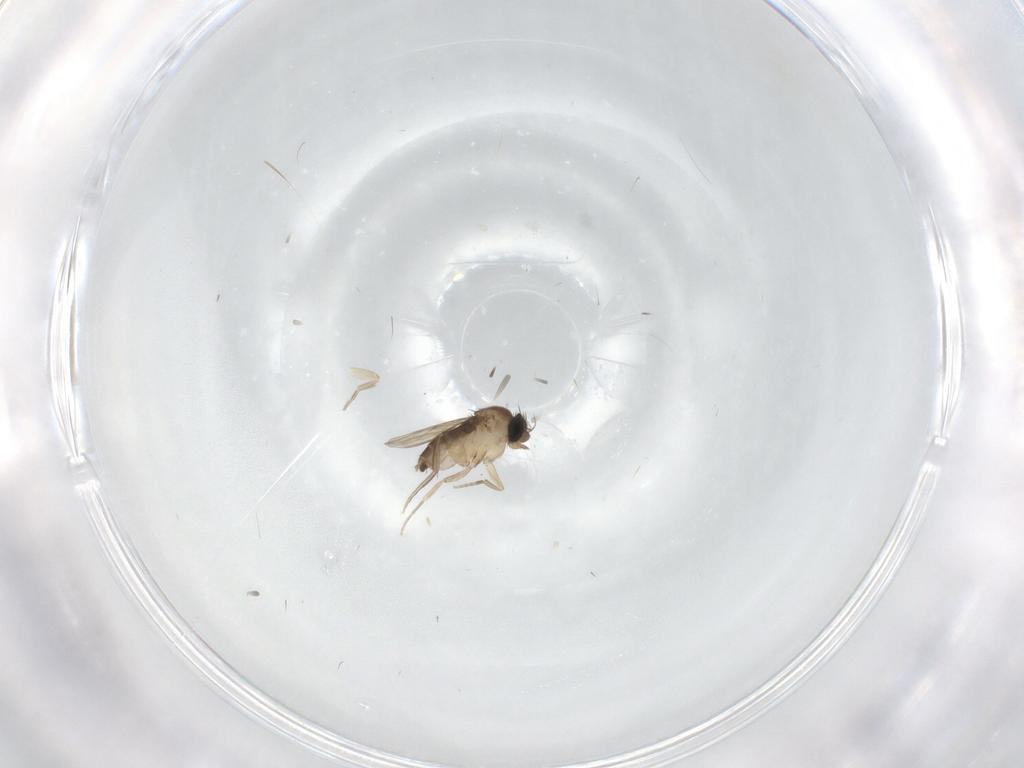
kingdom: Animalia
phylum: Arthropoda
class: Insecta
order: Diptera
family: Phoridae
